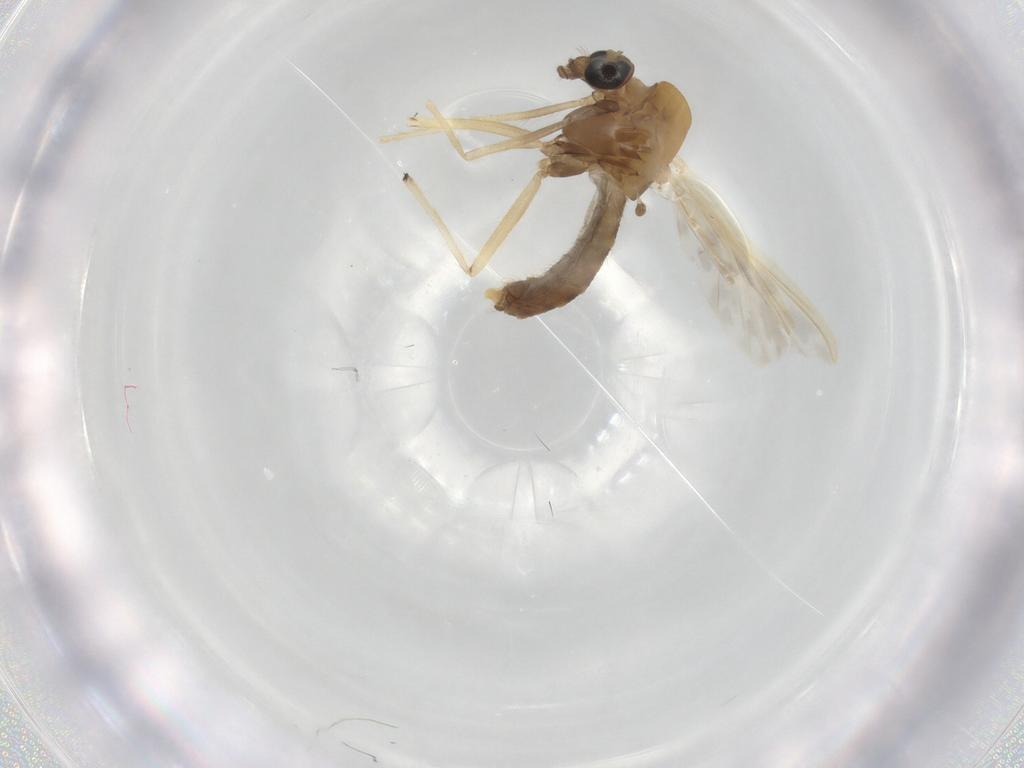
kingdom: Animalia
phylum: Arthropoda
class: Insecta
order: Diptera
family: Chironomidae
